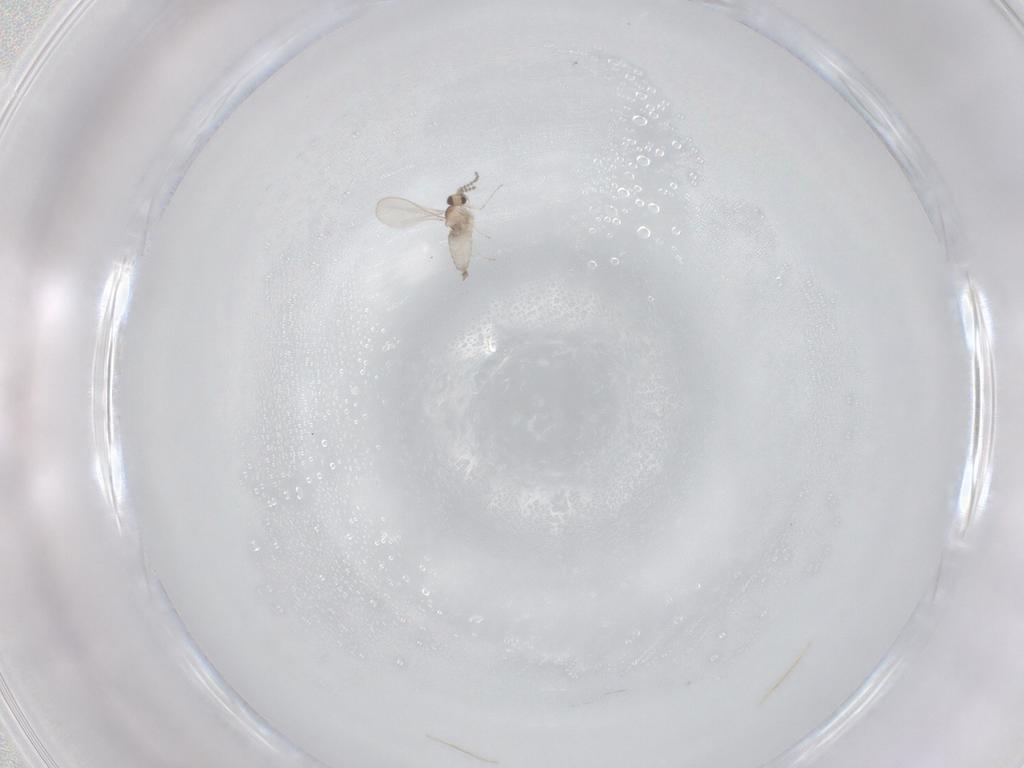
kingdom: Animalia
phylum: Arthropoda
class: Insecta
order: Diptera
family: Cecidomyiidae
